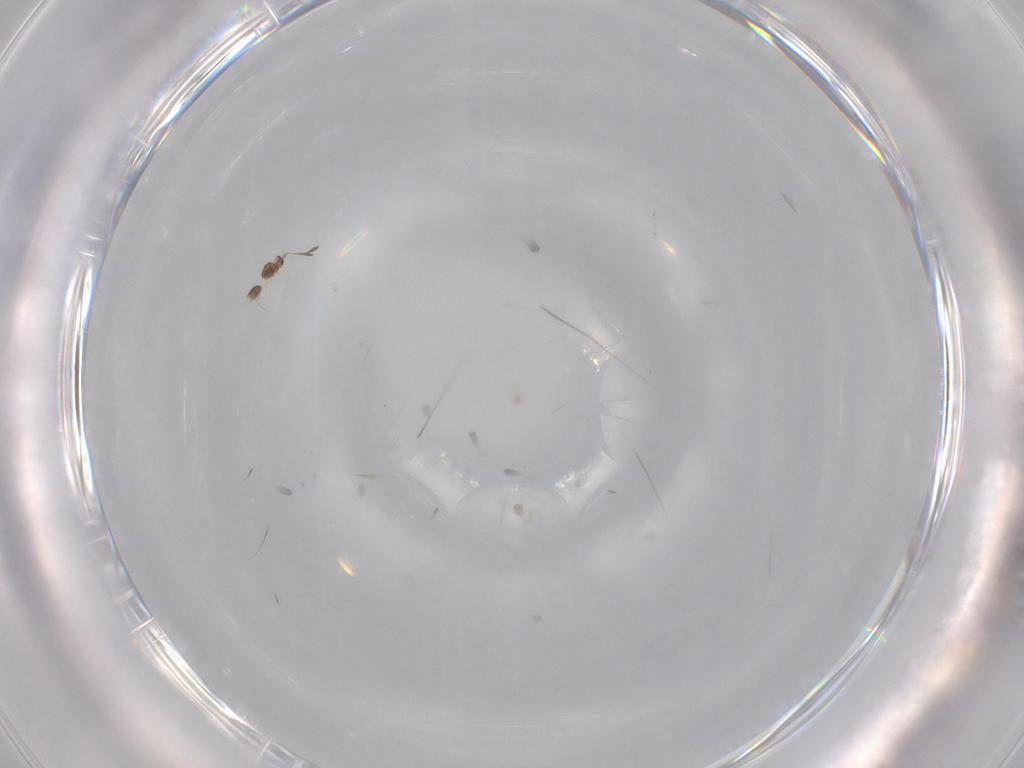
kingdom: Animalia
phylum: Arthropoda
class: Insecta
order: Hymenoptera
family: Mymarommatidae
